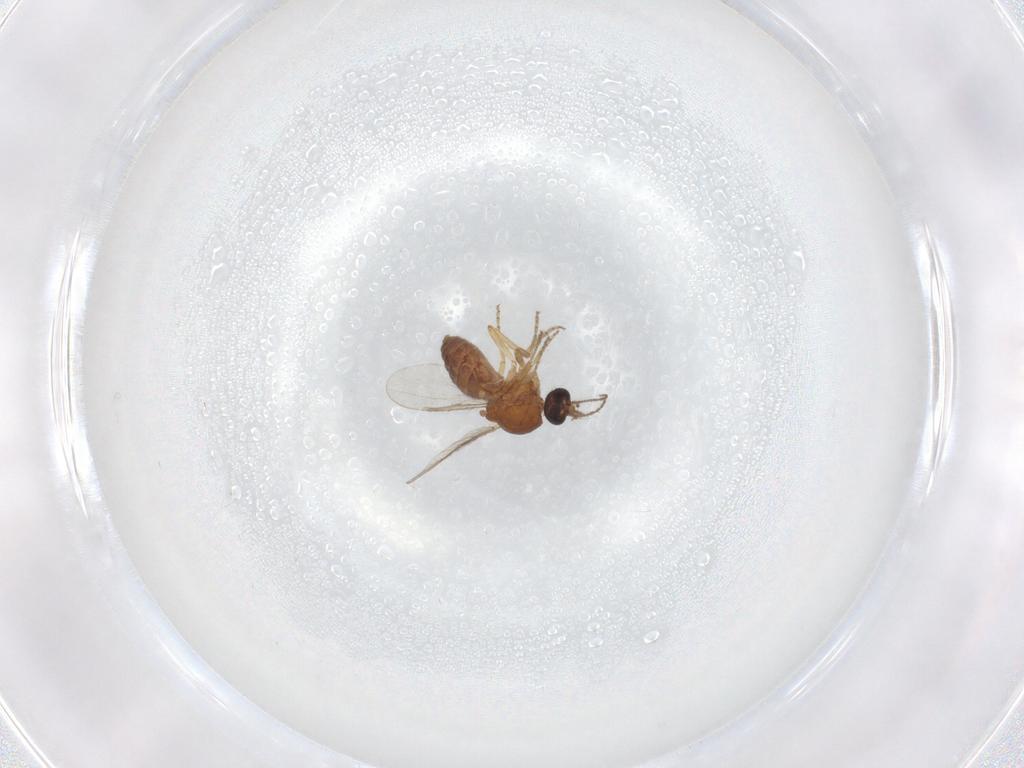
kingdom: Animalia
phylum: Arthropoda
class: Insecta
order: Diptera
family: Ceratopogonidae
